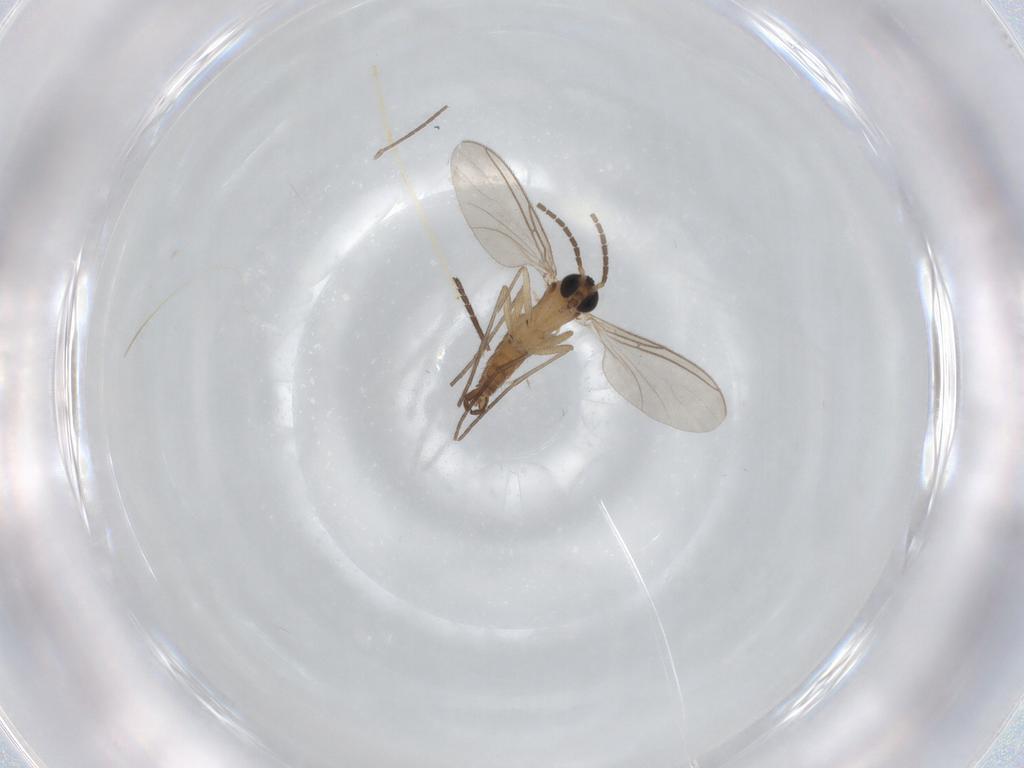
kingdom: Animalia
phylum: Arthropoda
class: Insecta
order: Diptera
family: Sciaridae
